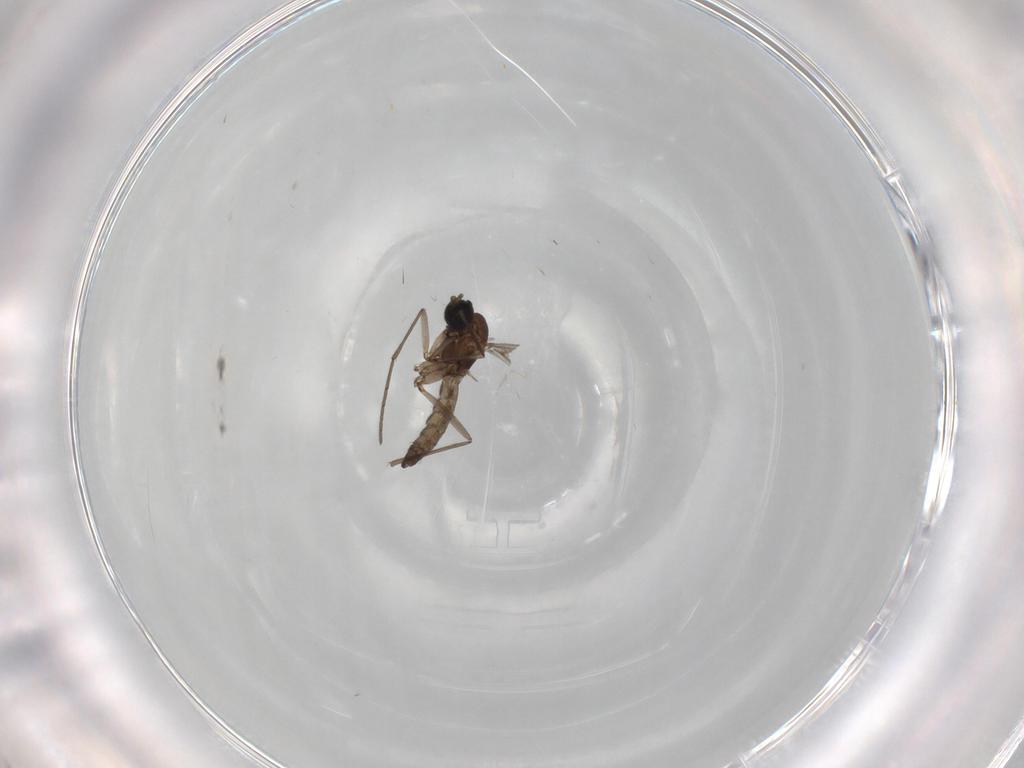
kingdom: Animalia
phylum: Arthropoda
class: Insecta
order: Diptera
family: Phoridae
